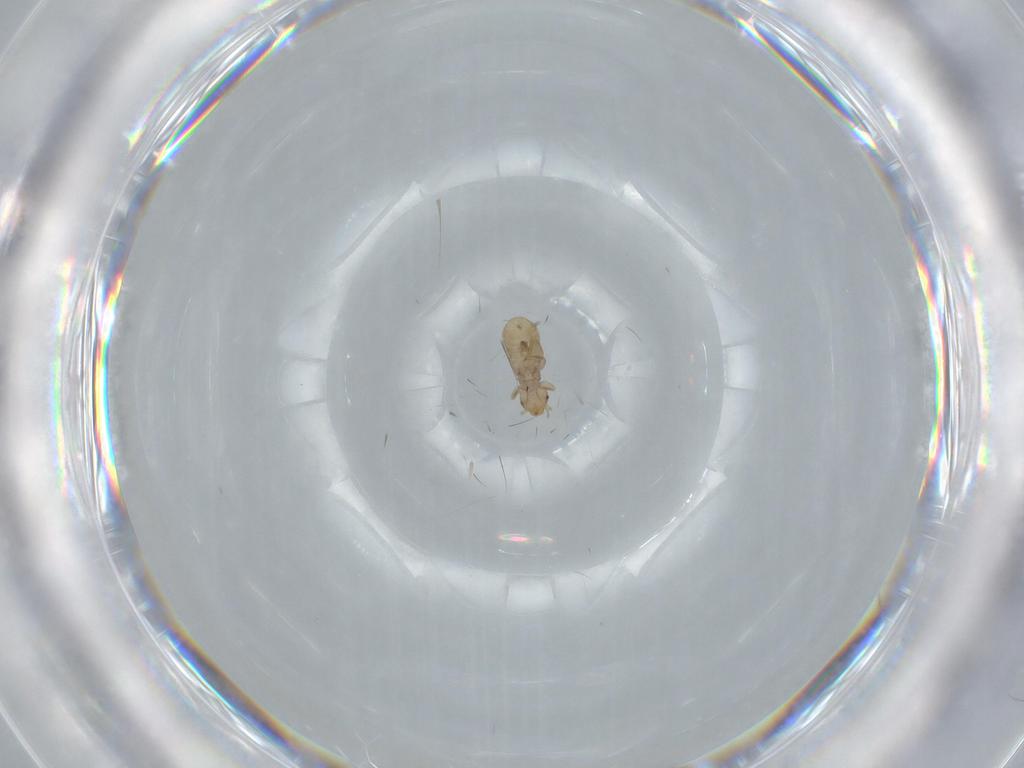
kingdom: Animalia
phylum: Arthropoda
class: Insecta
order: Psocodea
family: Liposcelididae
